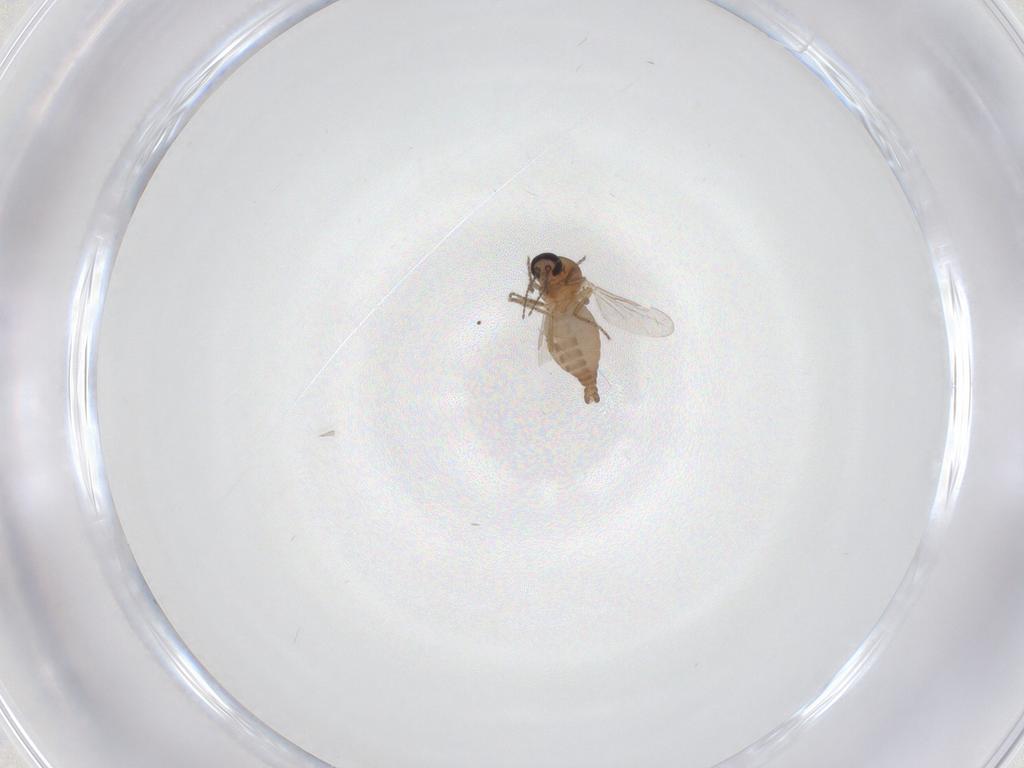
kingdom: Animalia
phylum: Arthropoda
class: Insecta
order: Diptera
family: Ceratopogonidae
